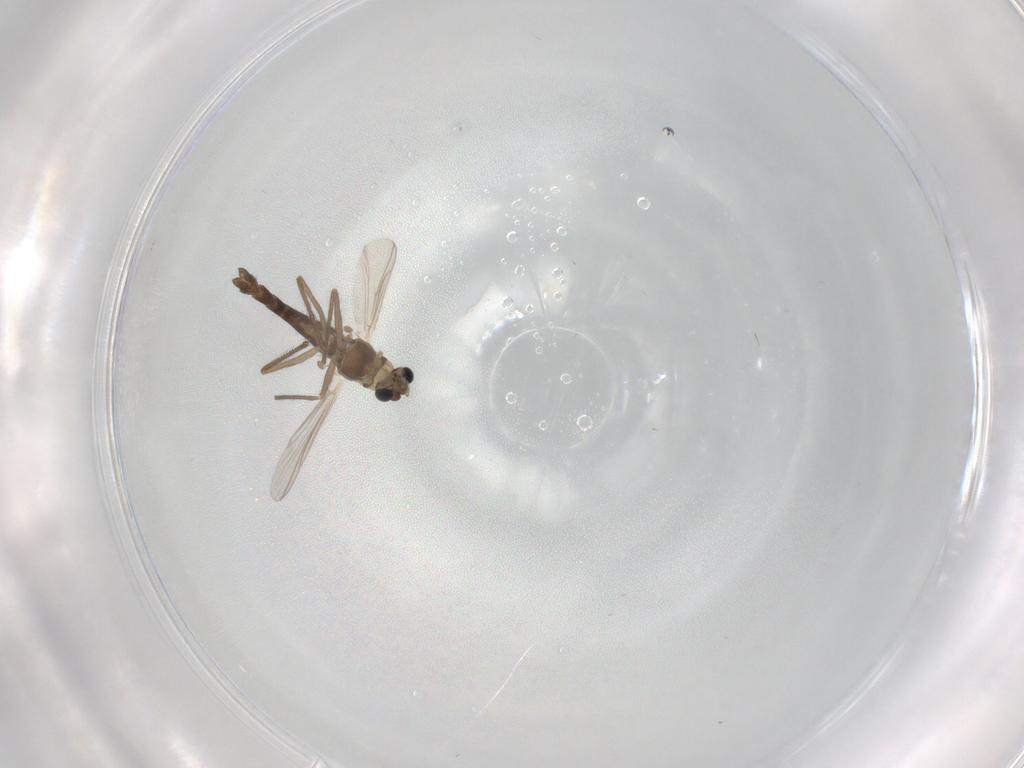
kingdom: Animalia
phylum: Arthropoda
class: Insecta
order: Diptera
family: Chironomidae
